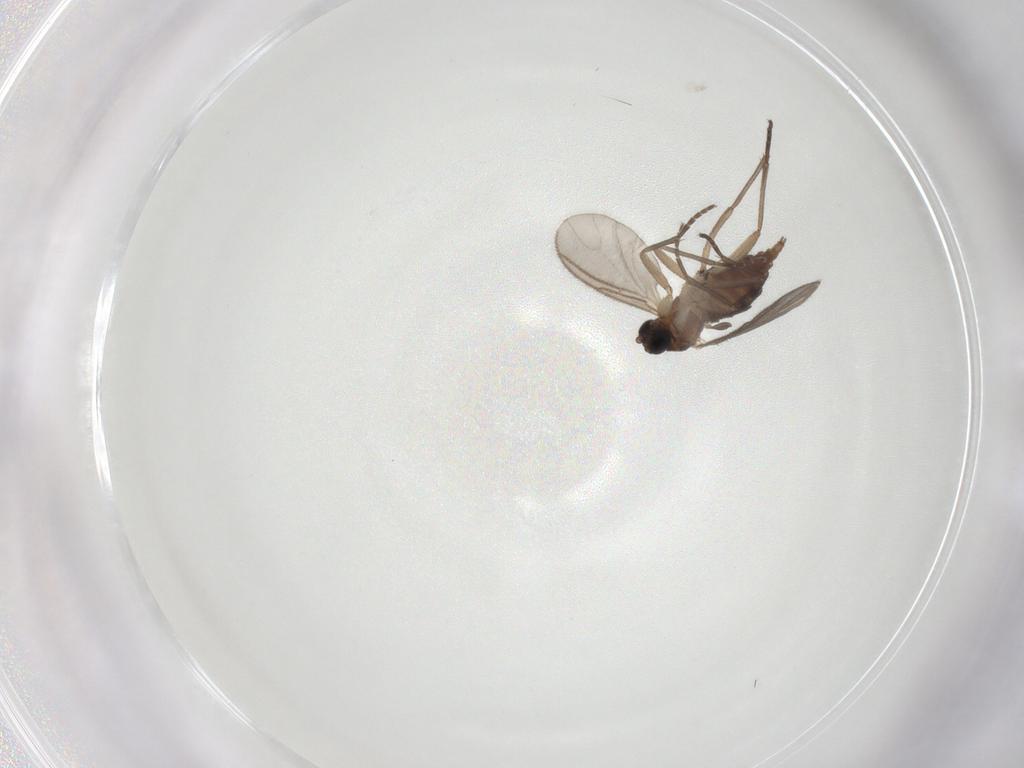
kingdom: Animalia
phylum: Arthropoda
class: Insecta
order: Diptera
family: Sciaridae
